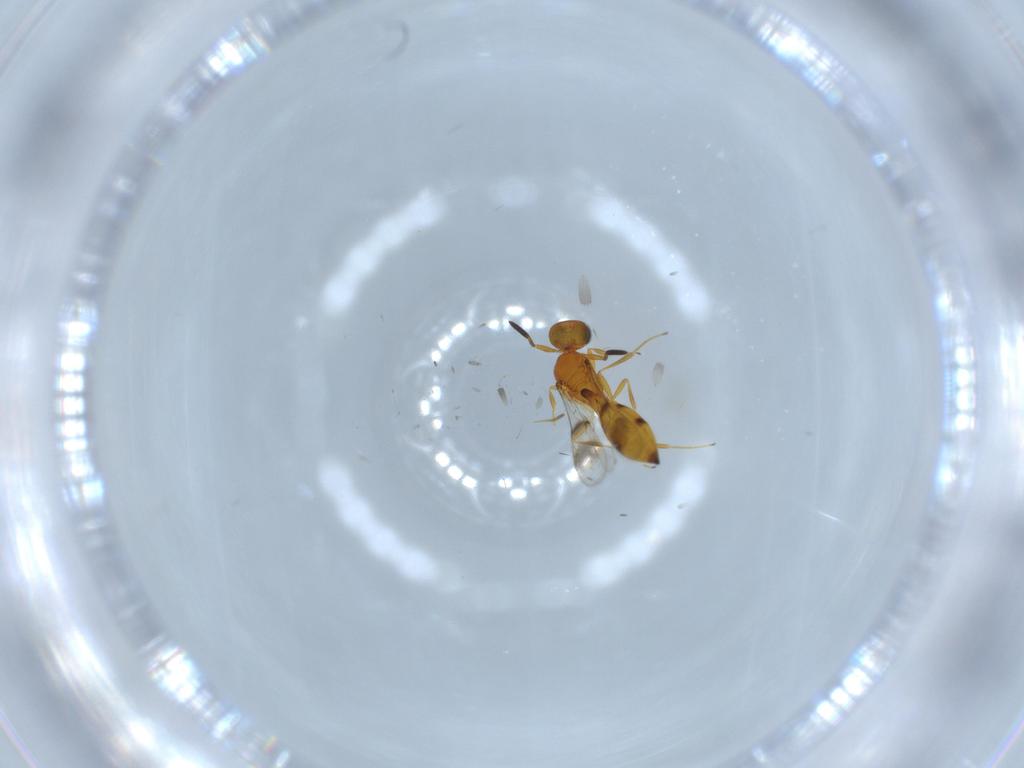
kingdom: Animalia
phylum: Arthropoda
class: Insecta
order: Hymenoptera
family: Scelionidae
